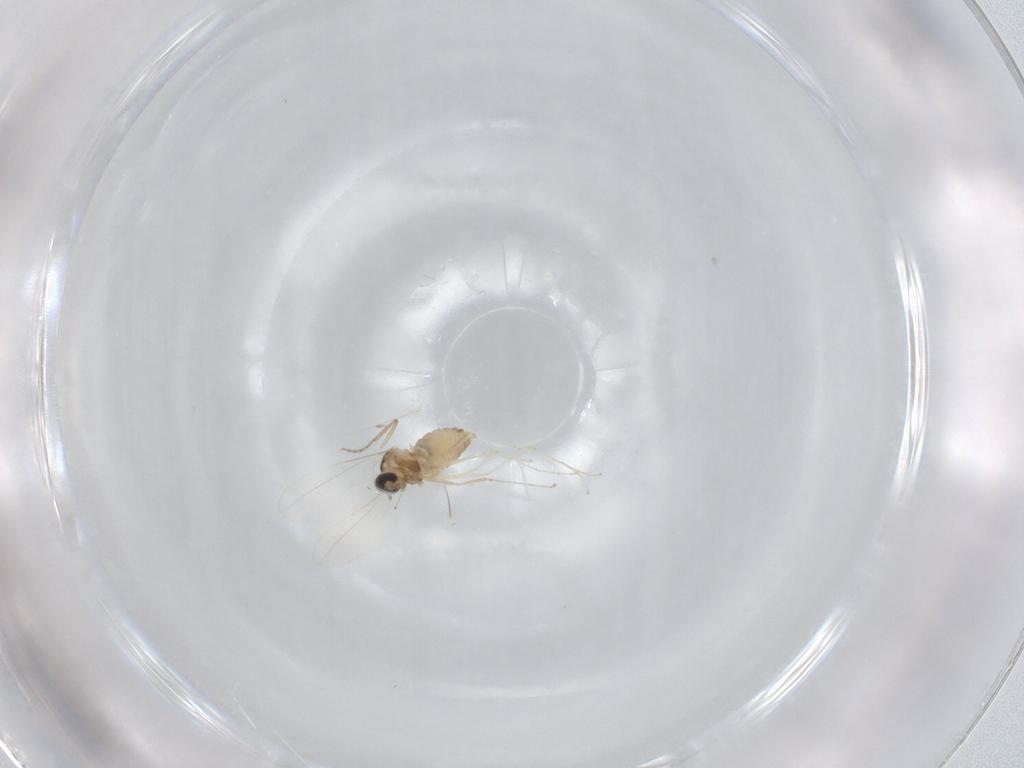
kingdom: Animalia
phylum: Arthropoda
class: Insecta
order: Diptera
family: Cecidomyiidae
